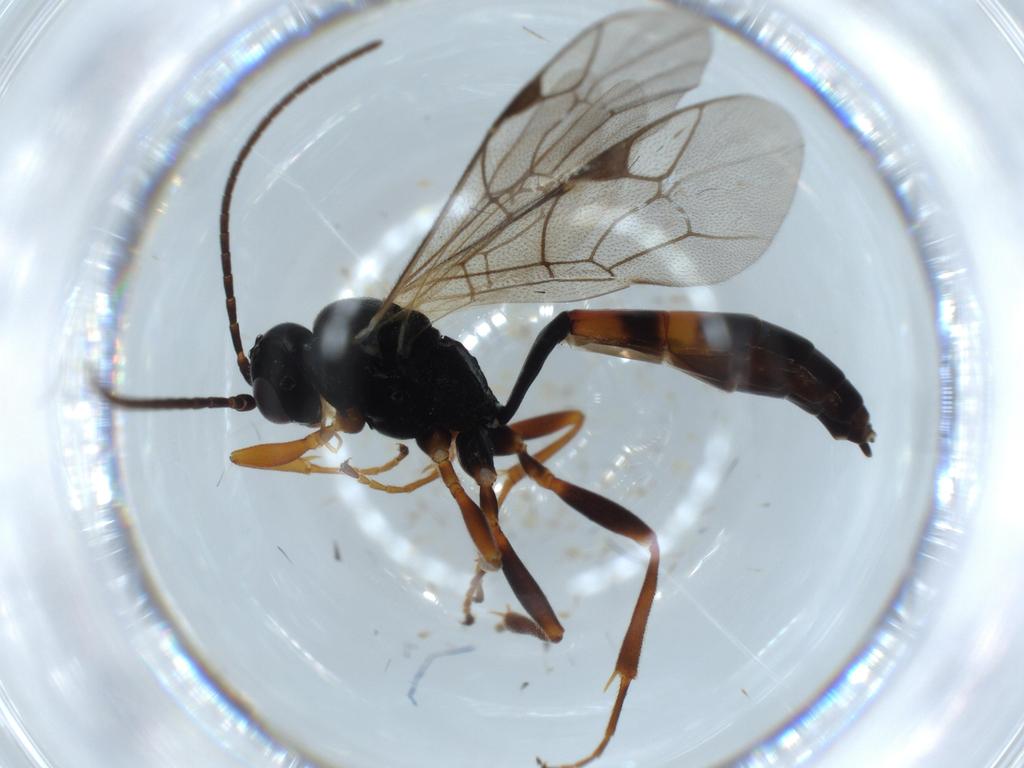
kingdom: Animalia
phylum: Arthropoda
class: Insecta
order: Hymenoptera
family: Ichneumonidae
